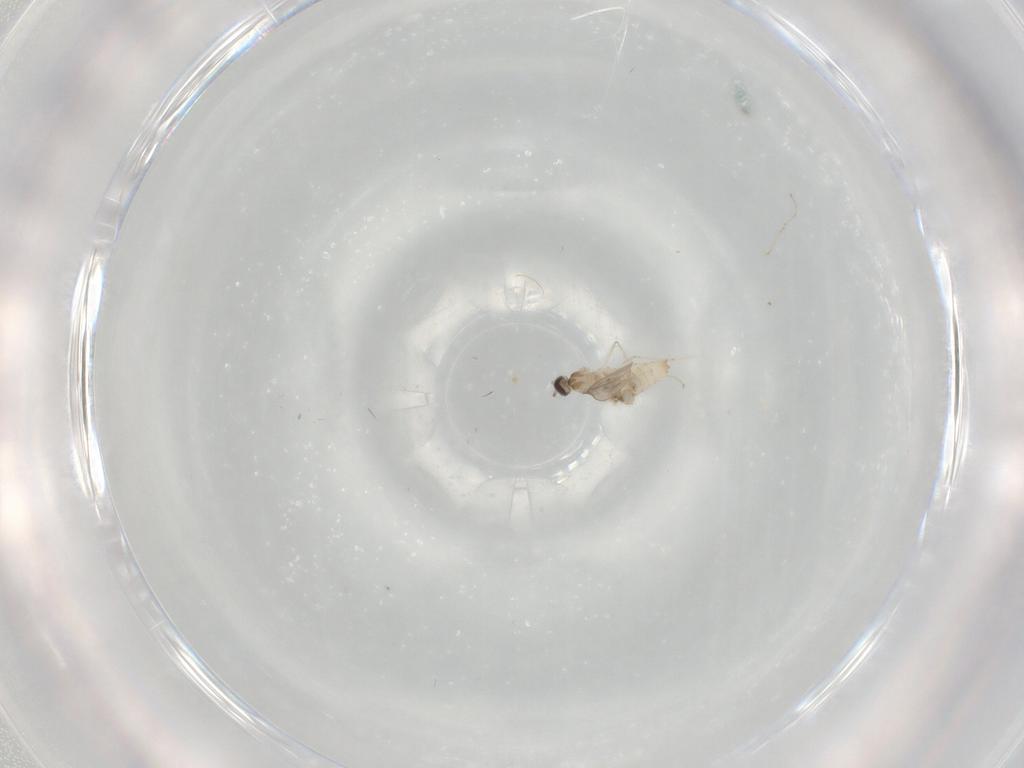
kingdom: Animalia
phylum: Arthropoda
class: Insecta
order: Diptera
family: Cecidomyiidae
